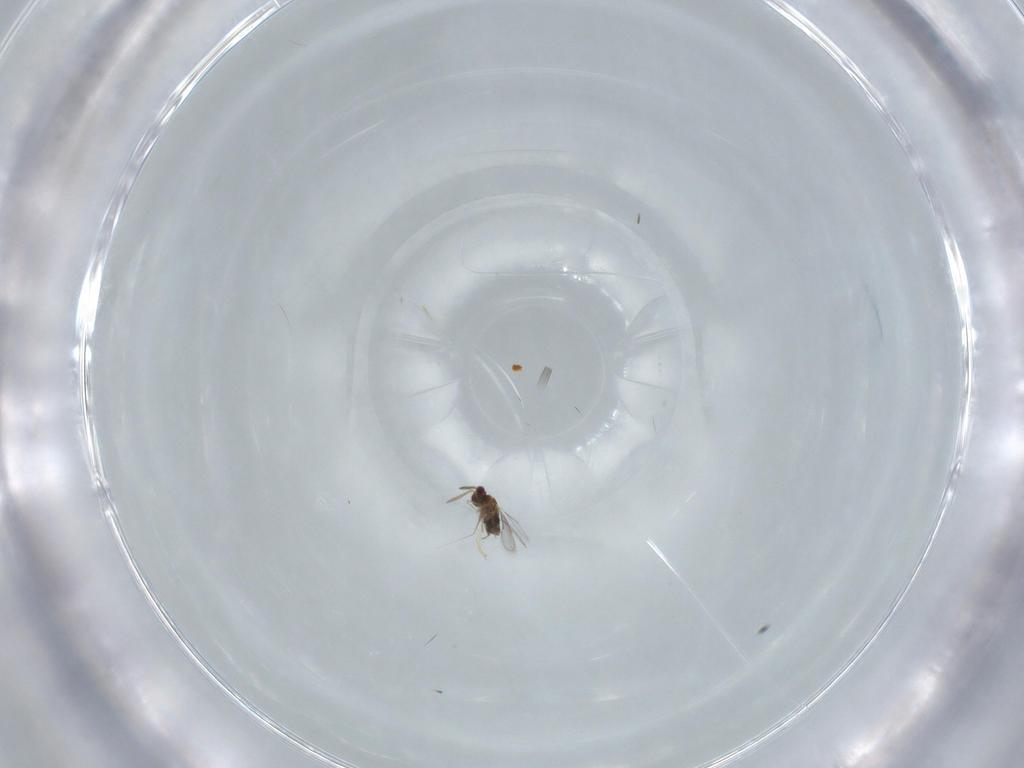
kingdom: Animalia
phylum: Arthropoda
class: Insecta
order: Hymenoptera
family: Aphelinidae
